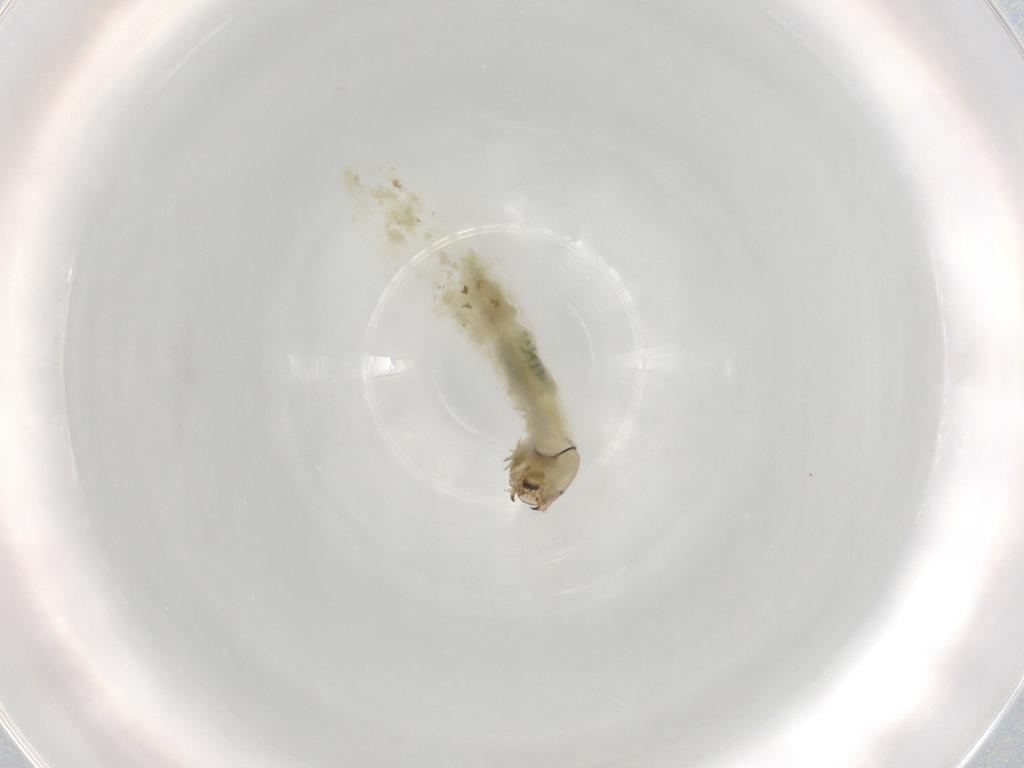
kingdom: Animalia
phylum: Arthropoda
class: Insecta
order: Diptera
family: Chironomidae
